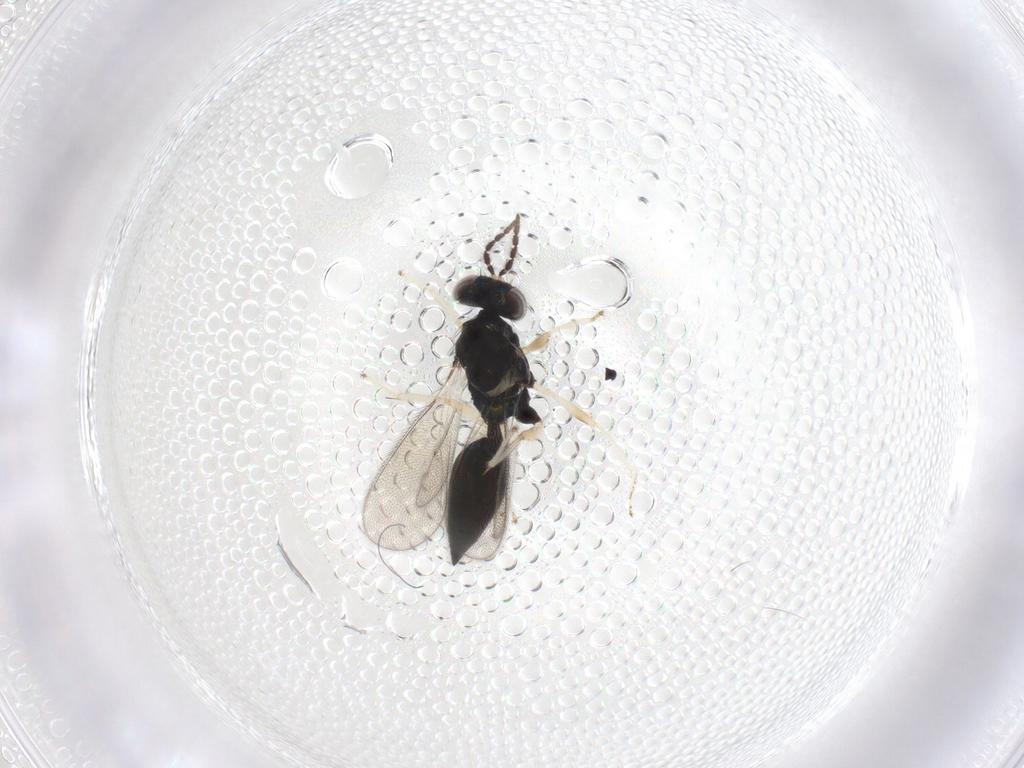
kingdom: Animalia
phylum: Arthropoda
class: Insecta
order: Hymenoptera
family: Eulophidae
